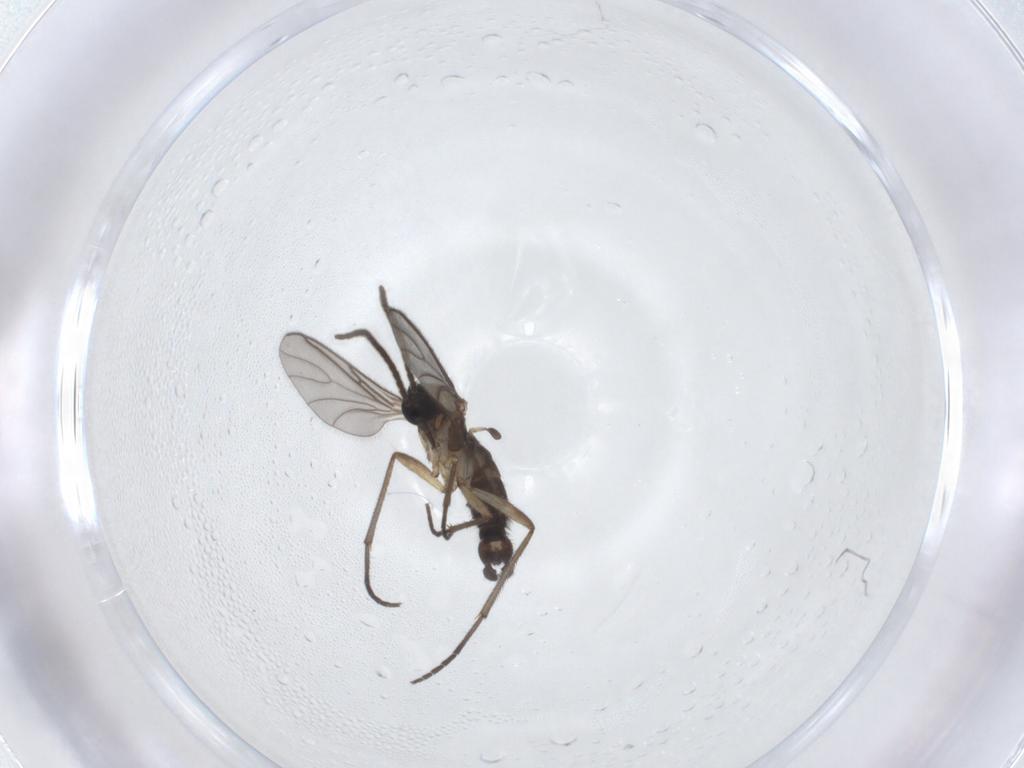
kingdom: Animalia
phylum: Arthropoda
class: Insecta
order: Diptera
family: Sciaridae
